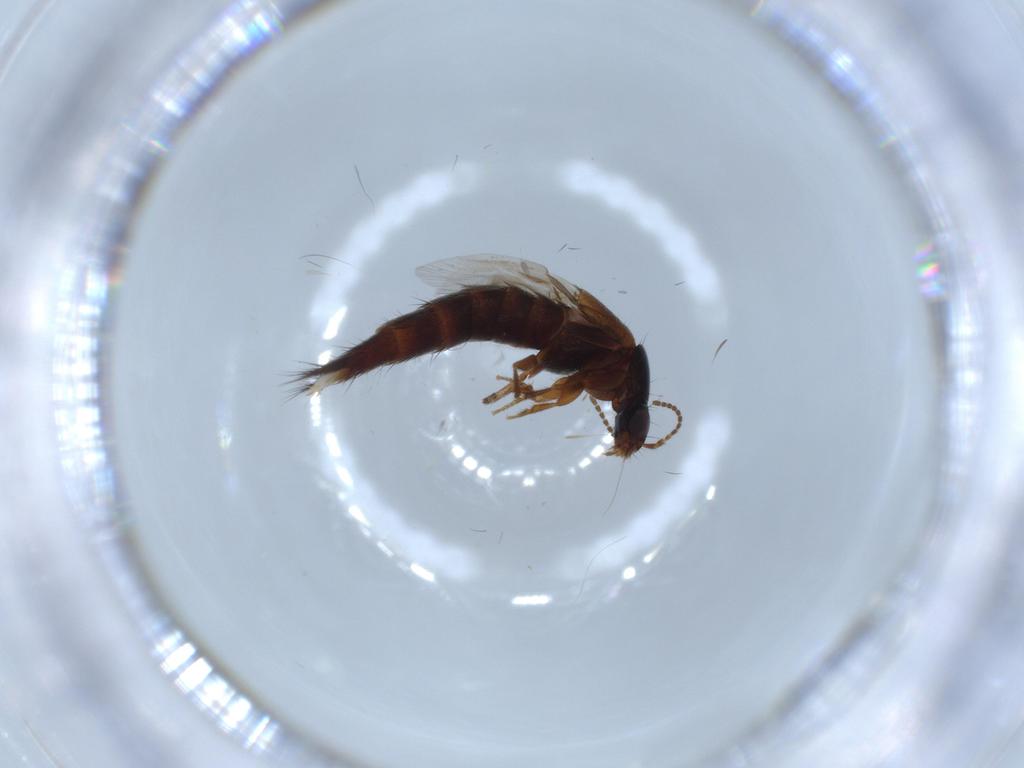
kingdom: Animalia
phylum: Arthropoda
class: Insecta
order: Coleoptera
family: Staphylinidae
